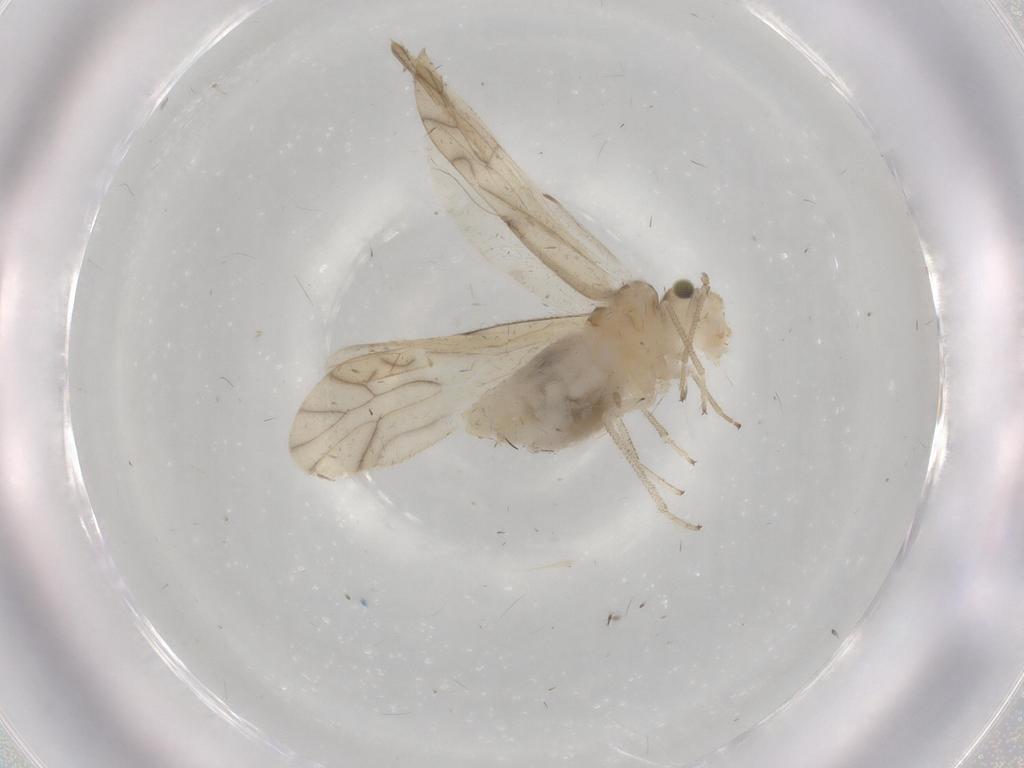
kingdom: Animalia
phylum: Arthropoda
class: Insecta
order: Psocodea
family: Caeciliusidae
